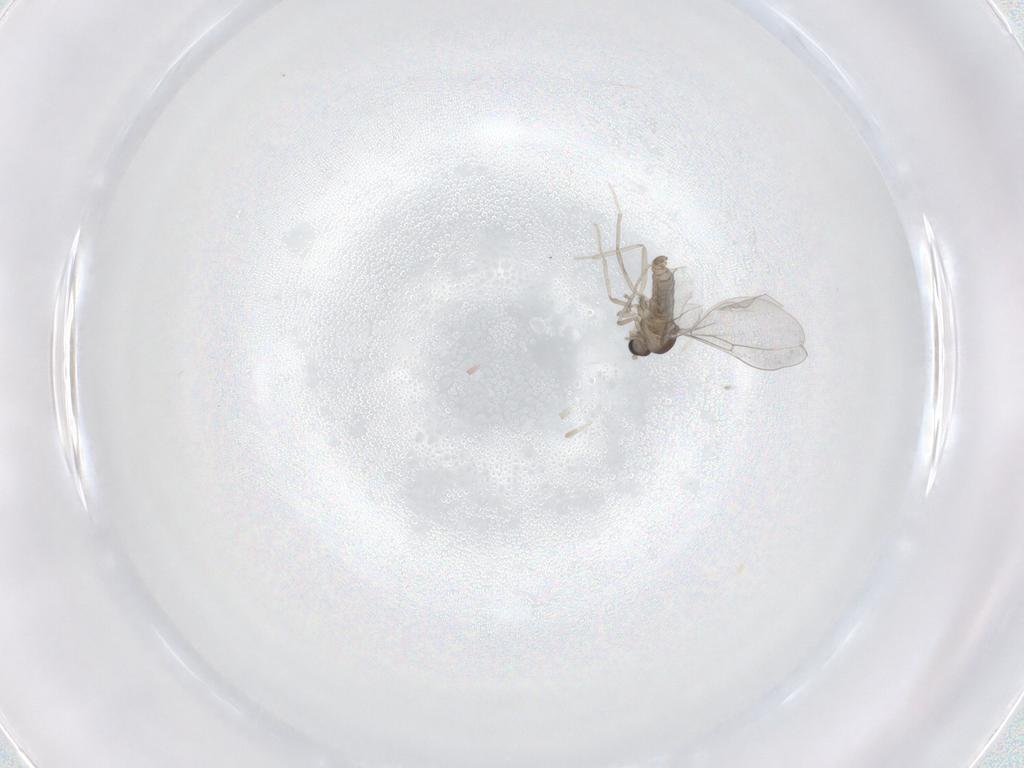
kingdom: Animalia
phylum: Arthropoda
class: Insecta
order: Diptera
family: Cecidomyiidae
